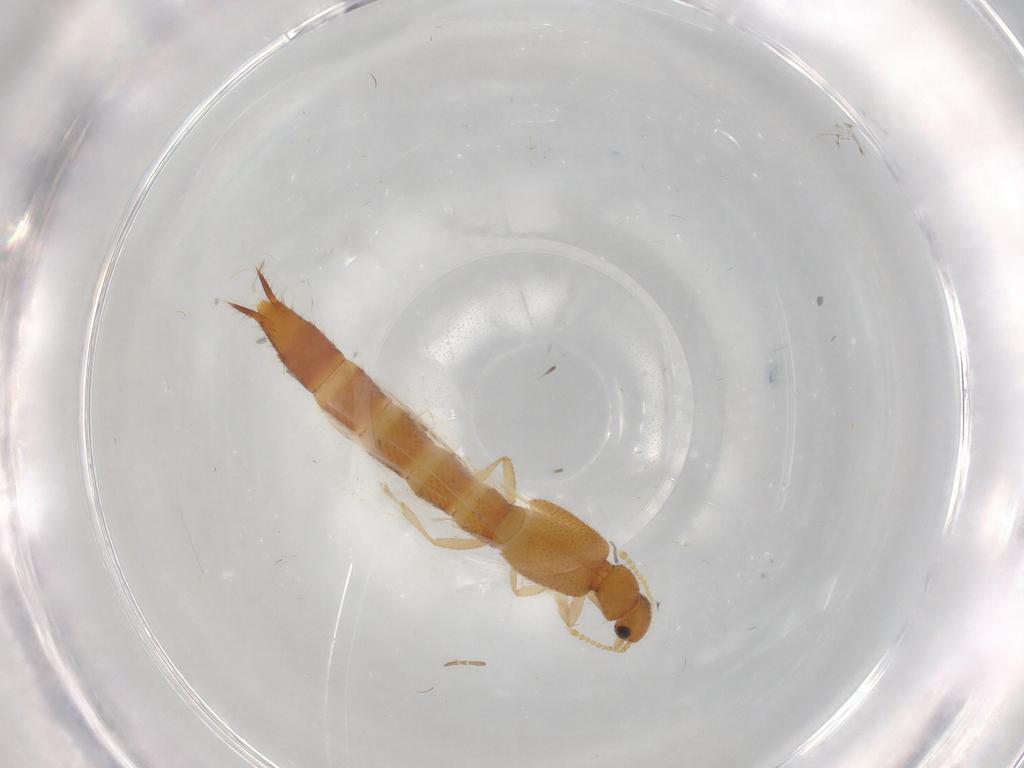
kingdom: Animalia
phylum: Arthropoda
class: Insecta
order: Coleoptera
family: Staphylinidae
